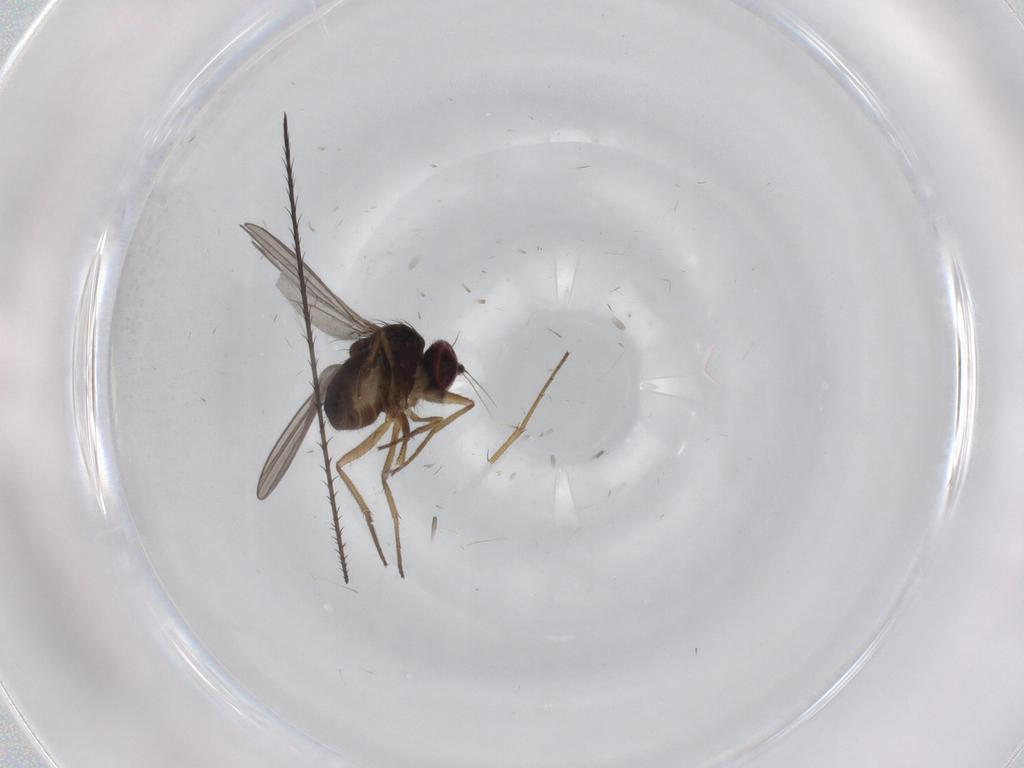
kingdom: Animalia
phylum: Arthropoda
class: Insecta
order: Diptera
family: Dolichopodidae
